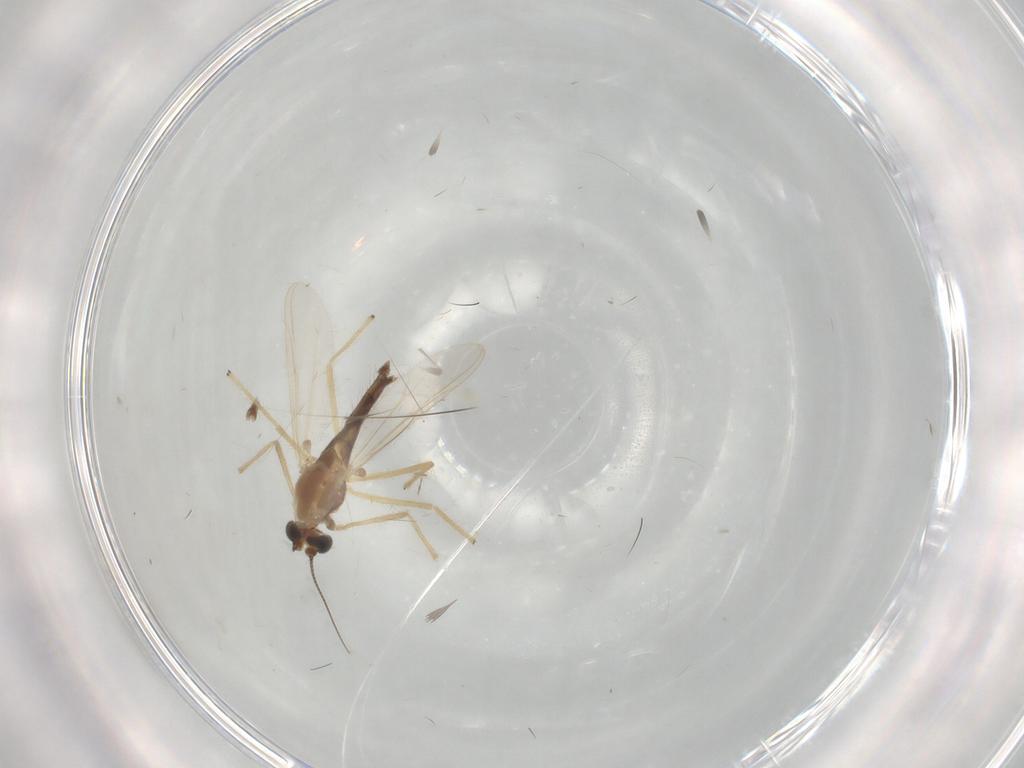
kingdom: Animalia
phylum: Arthropoda
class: Insecta
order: Diptera
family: Chironomidae
